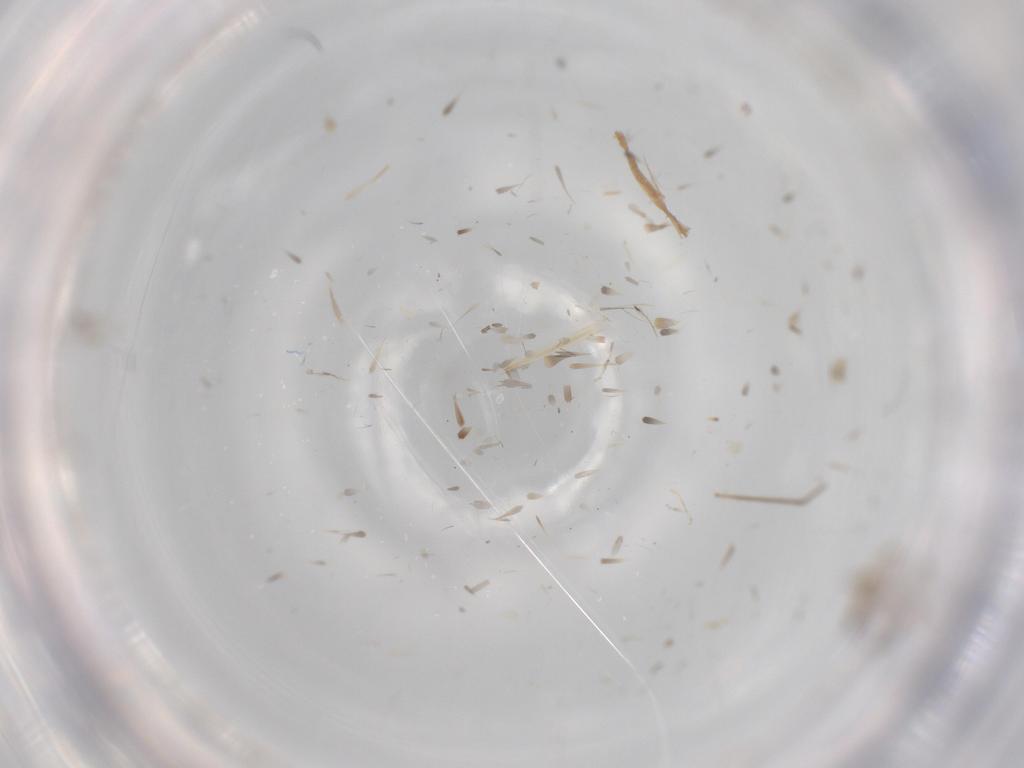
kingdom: Animalia
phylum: Arthropoda
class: Insecta
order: Diptera
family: Cecidomyiidae
